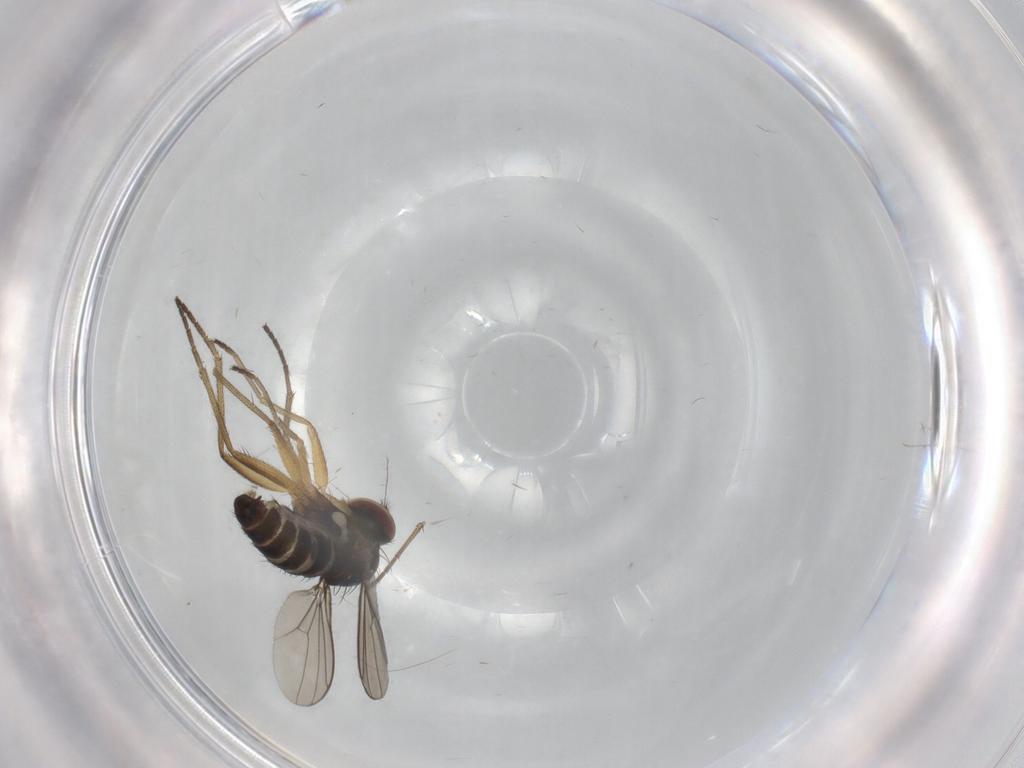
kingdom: Animalia
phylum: Arthropoda
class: Insecta
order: Diptera
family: Dolichopodidae
